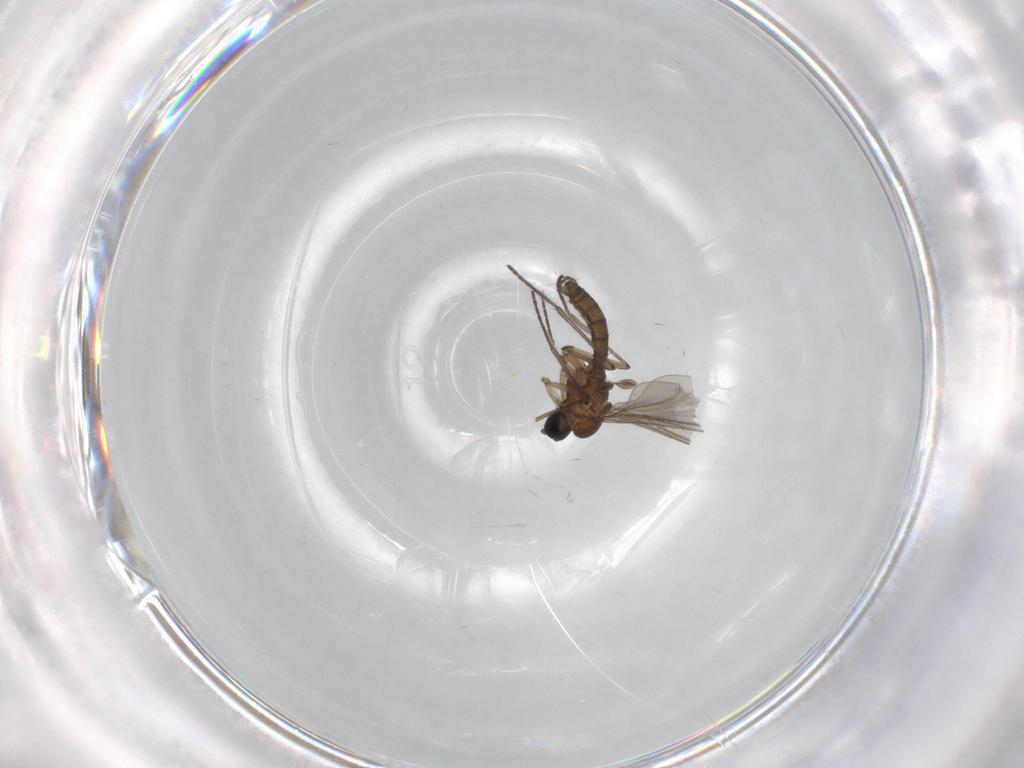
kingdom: Animalia
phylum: Arthropoda
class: Insecta
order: Diptera
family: Sciaridae
